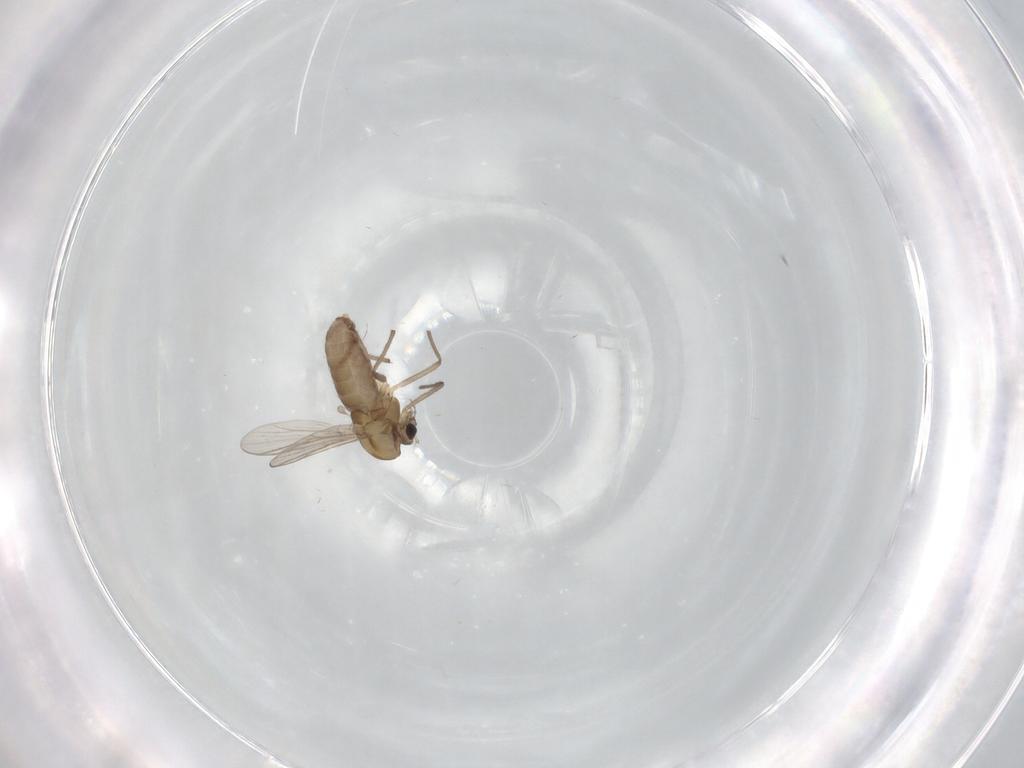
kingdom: Animalia
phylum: Arthropoda
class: Insecta
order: Diptera
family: Chironomidae
